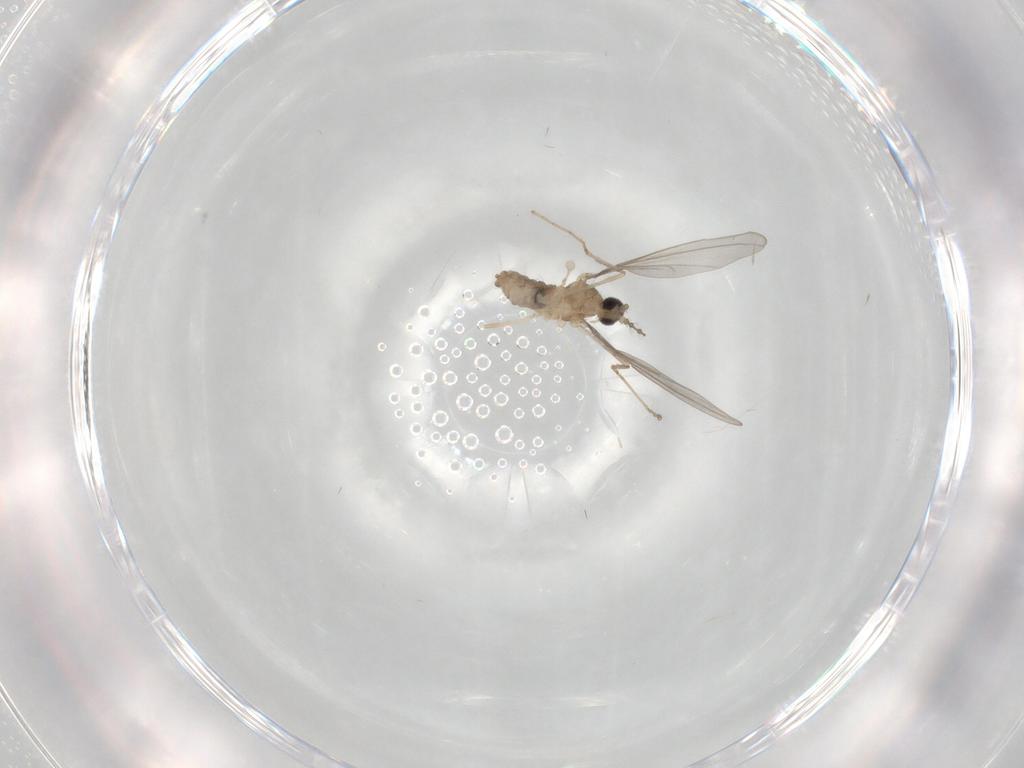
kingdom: Animalia
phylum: Arthropoda
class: Insecta
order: Diptera
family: Cecidomyiidae
